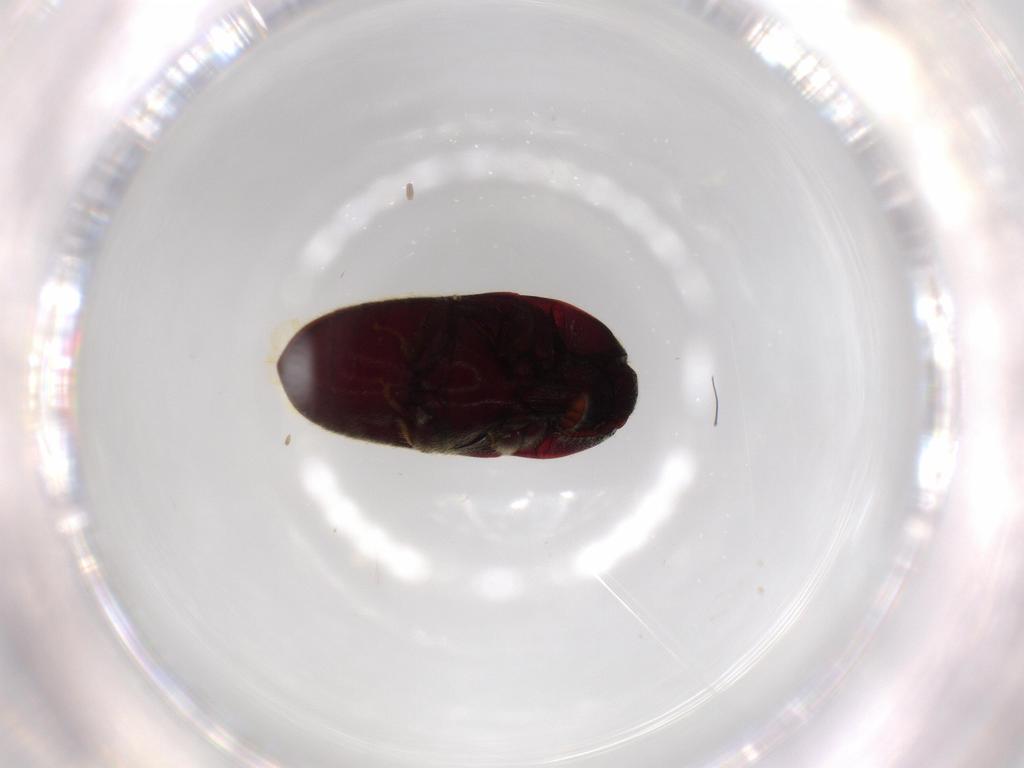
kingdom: Animalia
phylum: Arthropoda
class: Insecta
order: Coleoptera
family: Throscidae
